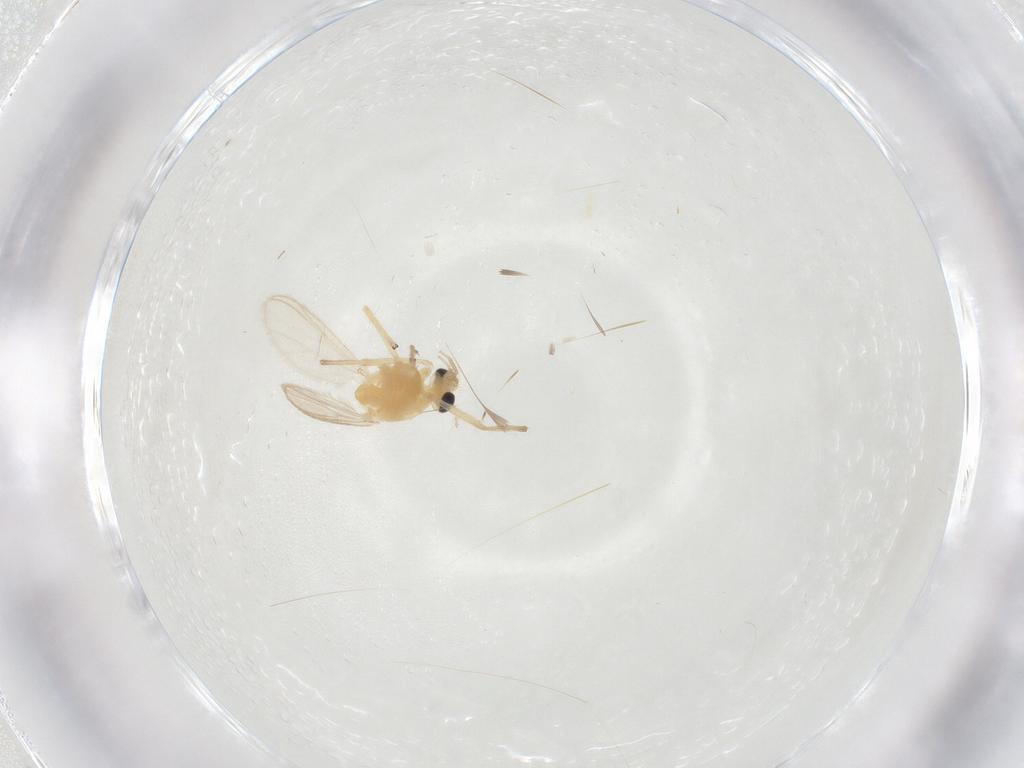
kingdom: Animalia
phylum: Arthropoda
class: Insecta
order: Diptera
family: Chironomidae
